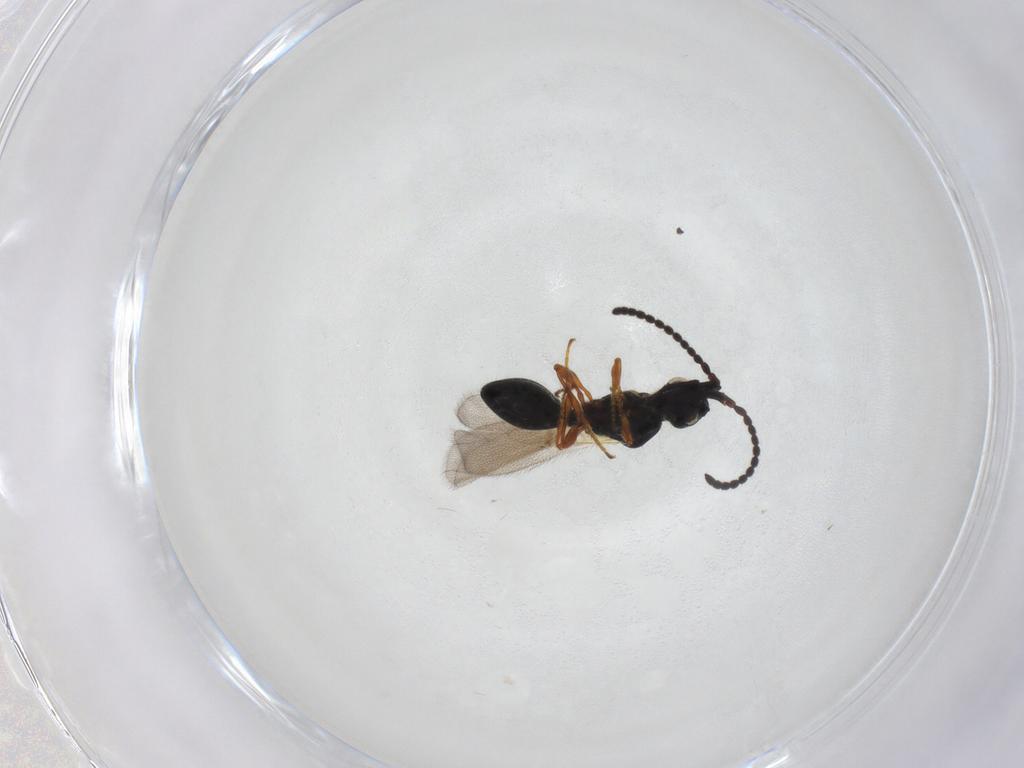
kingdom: Animalia
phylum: Arthropoda
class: Insecta
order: Hymenoptera
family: Diapriidae
